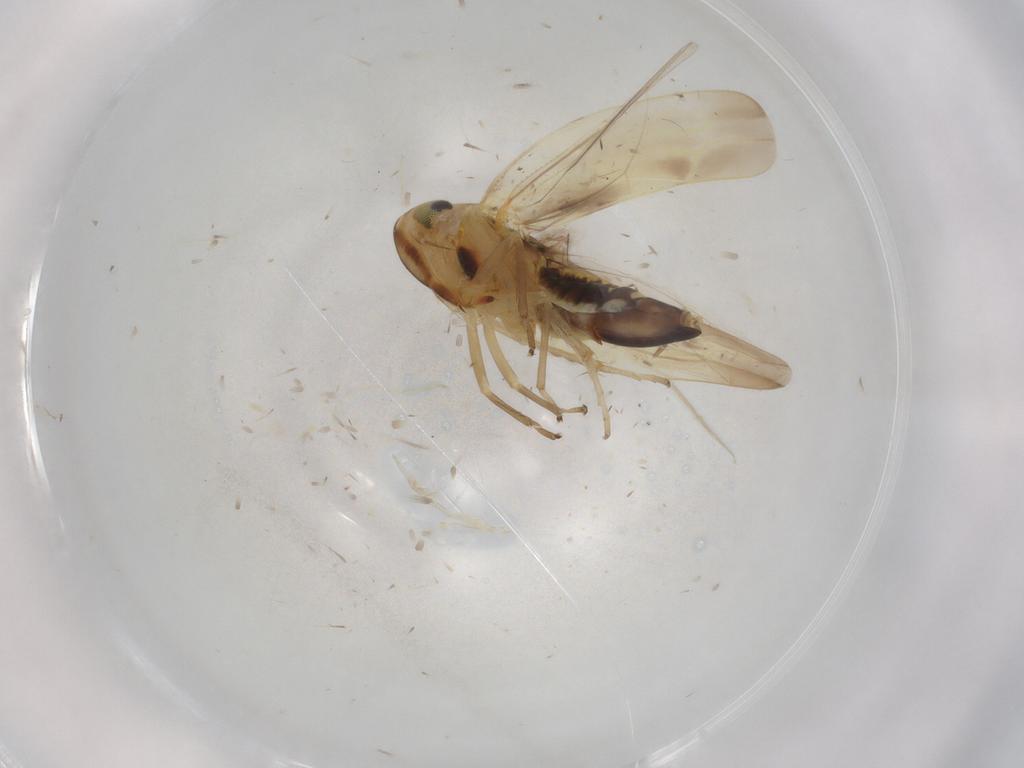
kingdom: Animalia
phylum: Arthropoda
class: Insecta
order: Hemiptera
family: Cicadellidae
